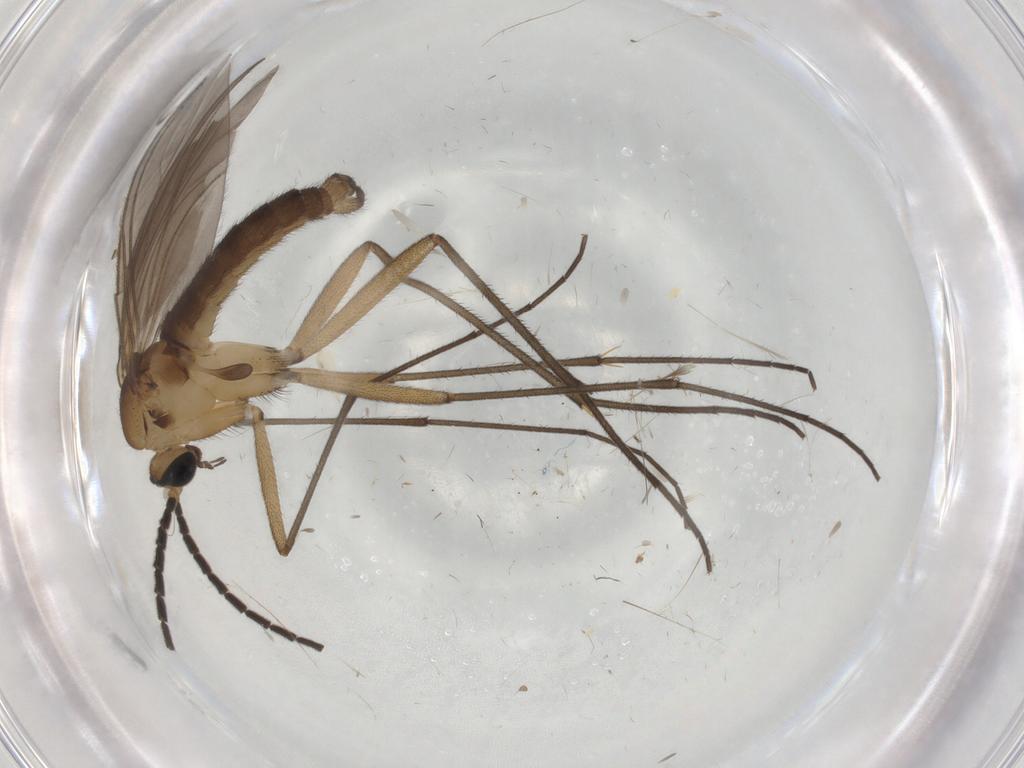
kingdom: Animalia
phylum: Arthropoda
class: Insecta
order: Diptera
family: Sciaridae
